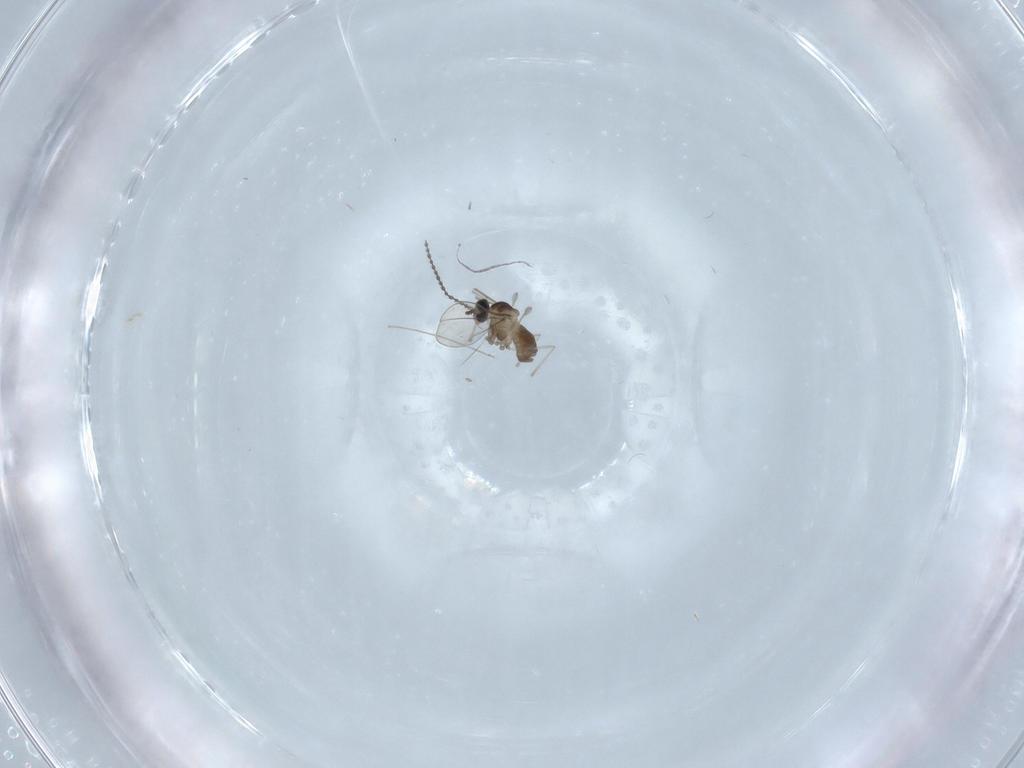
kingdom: Animalia
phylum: Arthropoda
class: Insecta
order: Diptera
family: Cecidomyiidae
